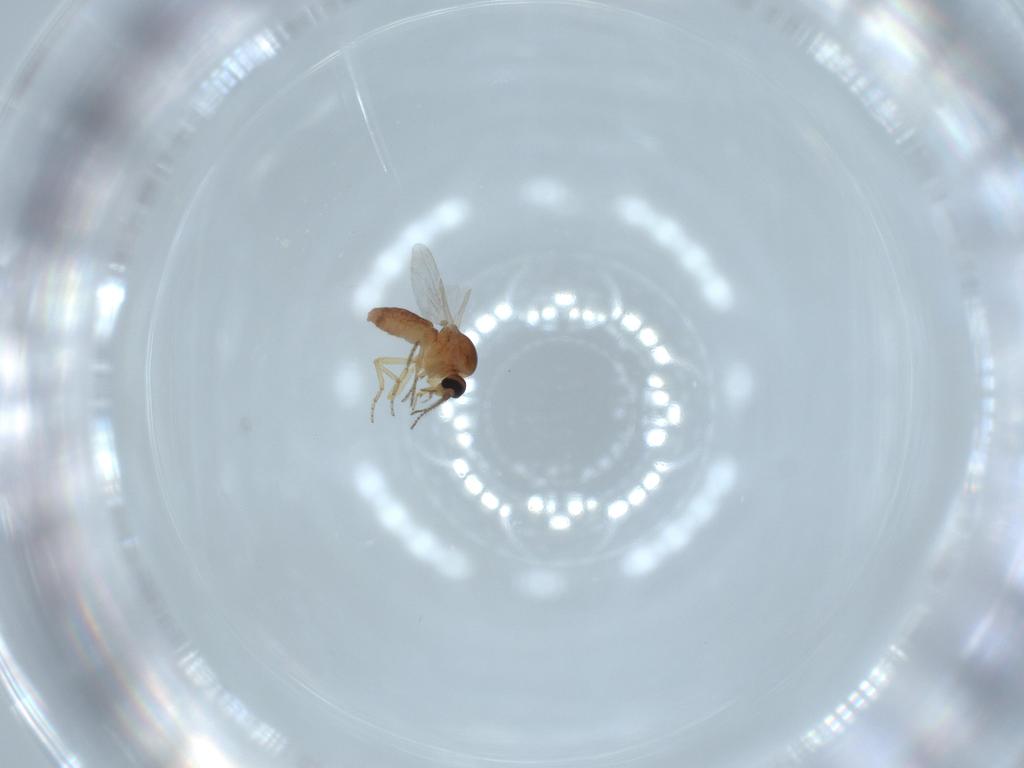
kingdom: Animalia
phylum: Arthropoda
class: Insecta
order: Diptera
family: Ceratopogonidae
